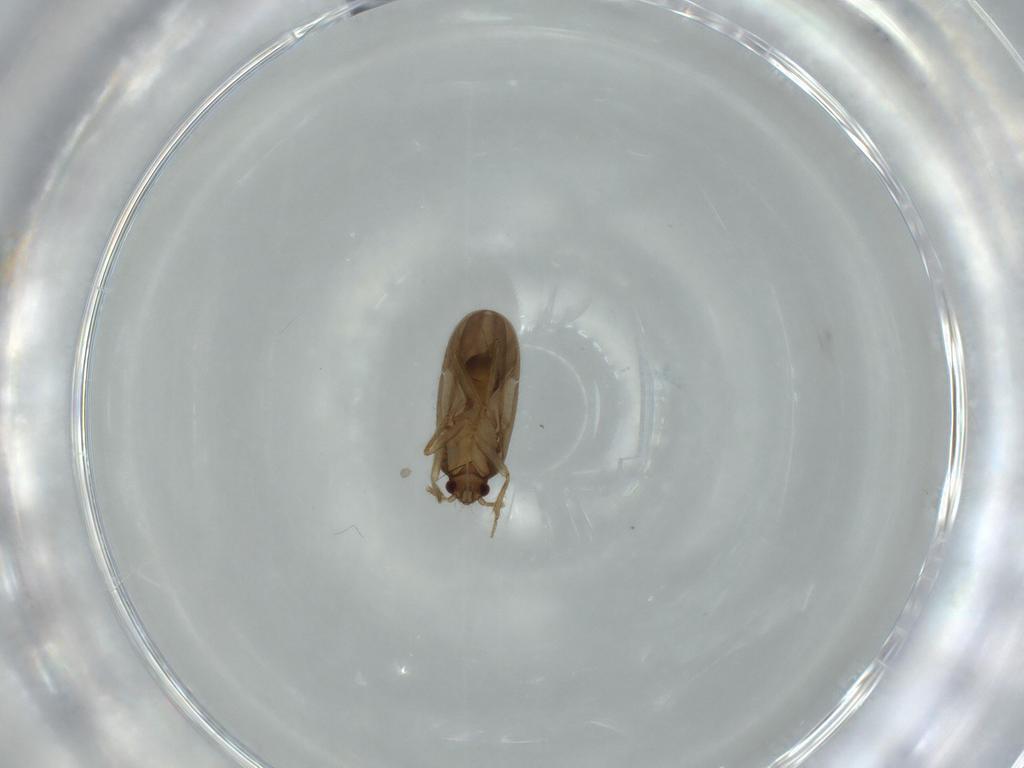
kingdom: Animalia
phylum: Arthropoda
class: Insecta
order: Hemiptera
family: Ceratocombidae
